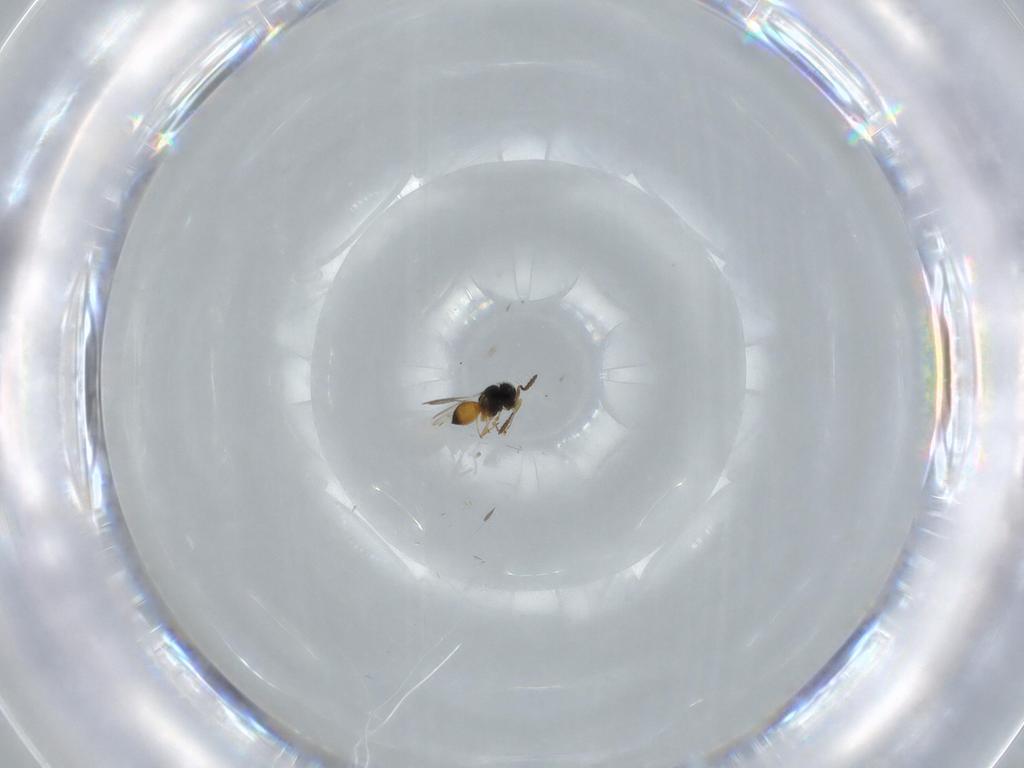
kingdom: Animalia
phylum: Arthropoda
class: Insecta
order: Hymenoptera
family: Scelionidae
